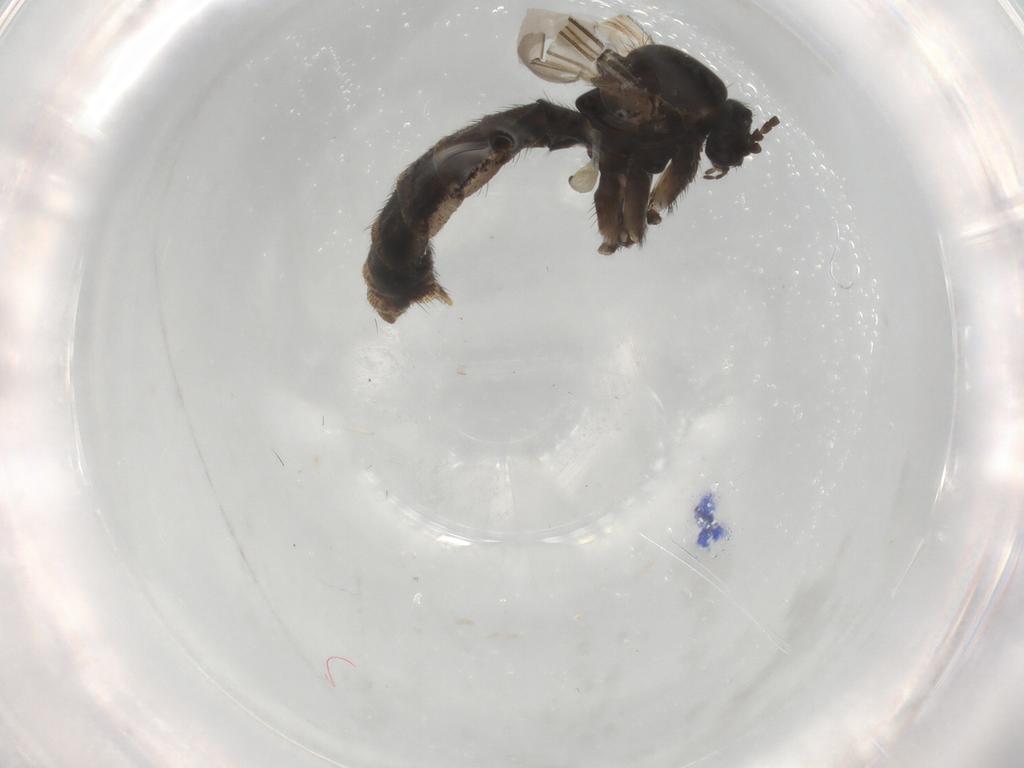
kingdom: Animalia
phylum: Arthropoda
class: Insecta
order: Diptera
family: Keroplatidae
